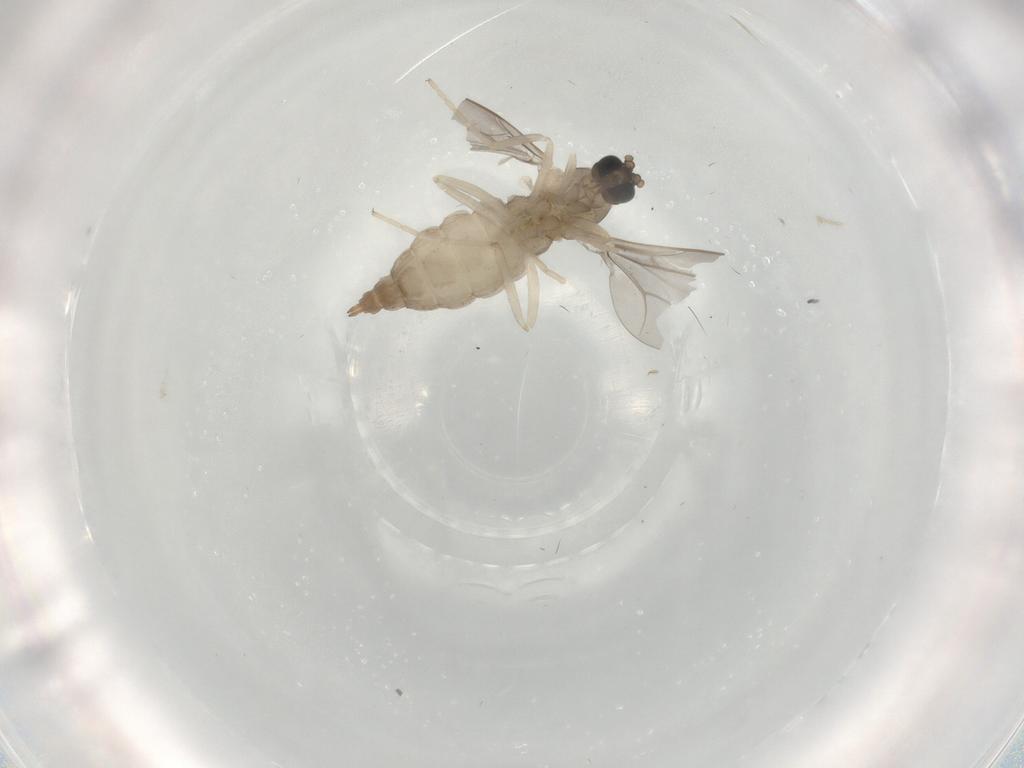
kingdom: Animalia
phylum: Arthropoda
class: Insecta
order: Diptera
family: Cecidomyiidae
